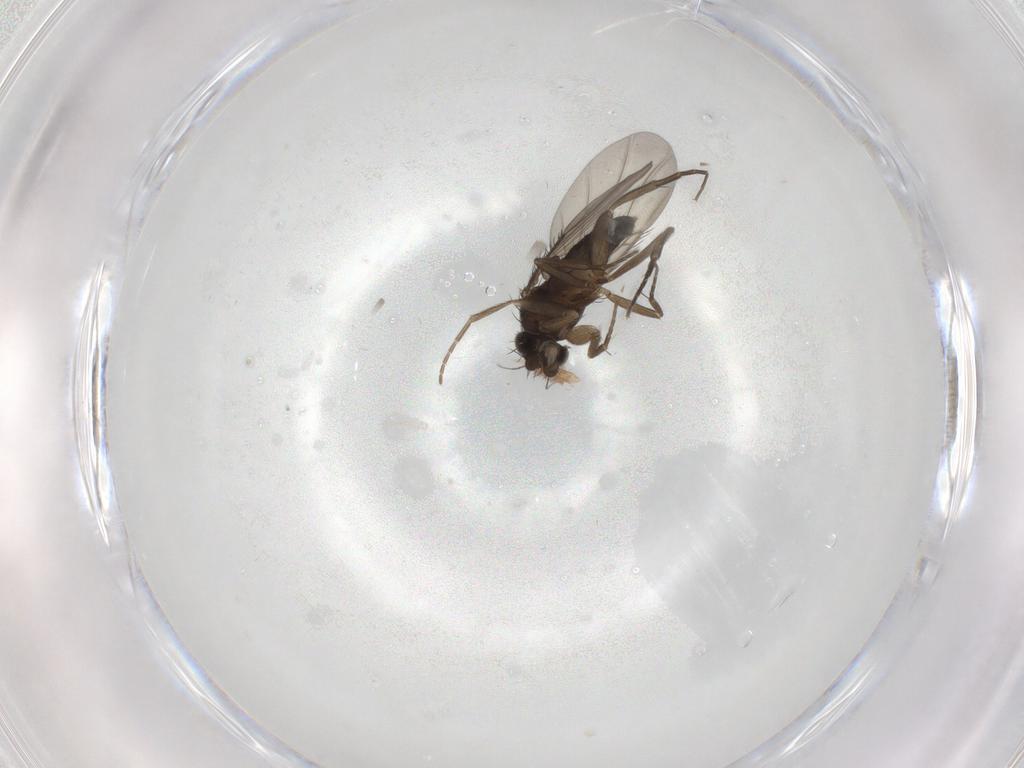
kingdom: Animalia
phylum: Arthropoda
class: Insecta
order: Diptera
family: Phoridae
